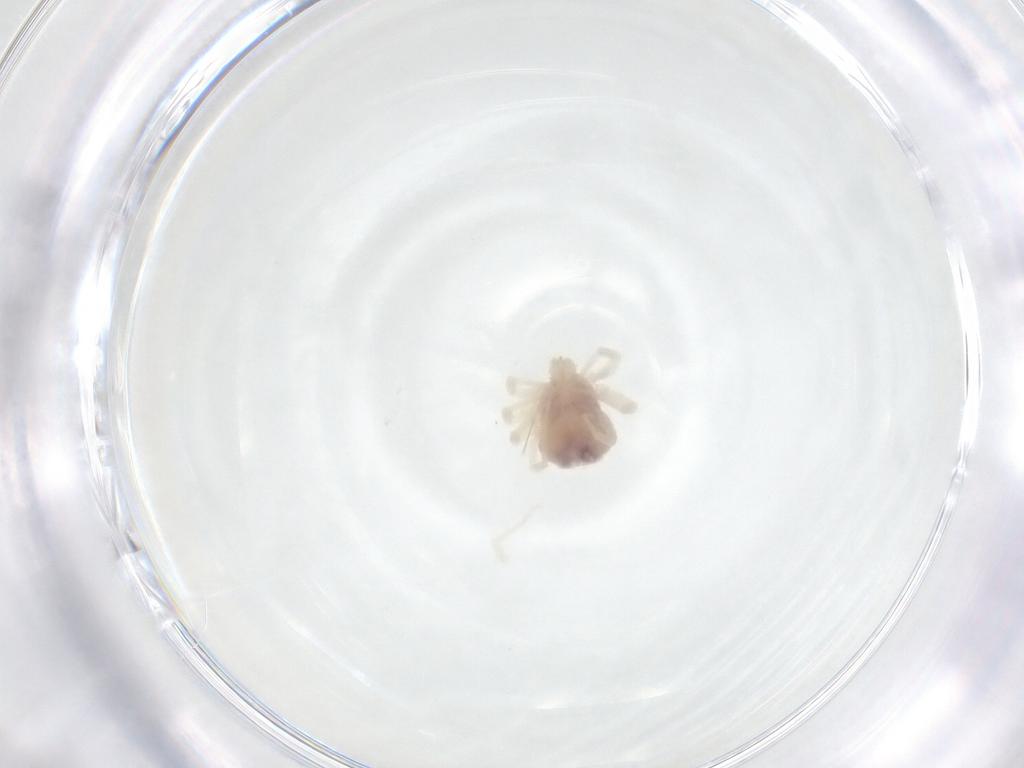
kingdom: Animalia
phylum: Arthropoda
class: Arachnida
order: Trombidiformes
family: Anystidae
